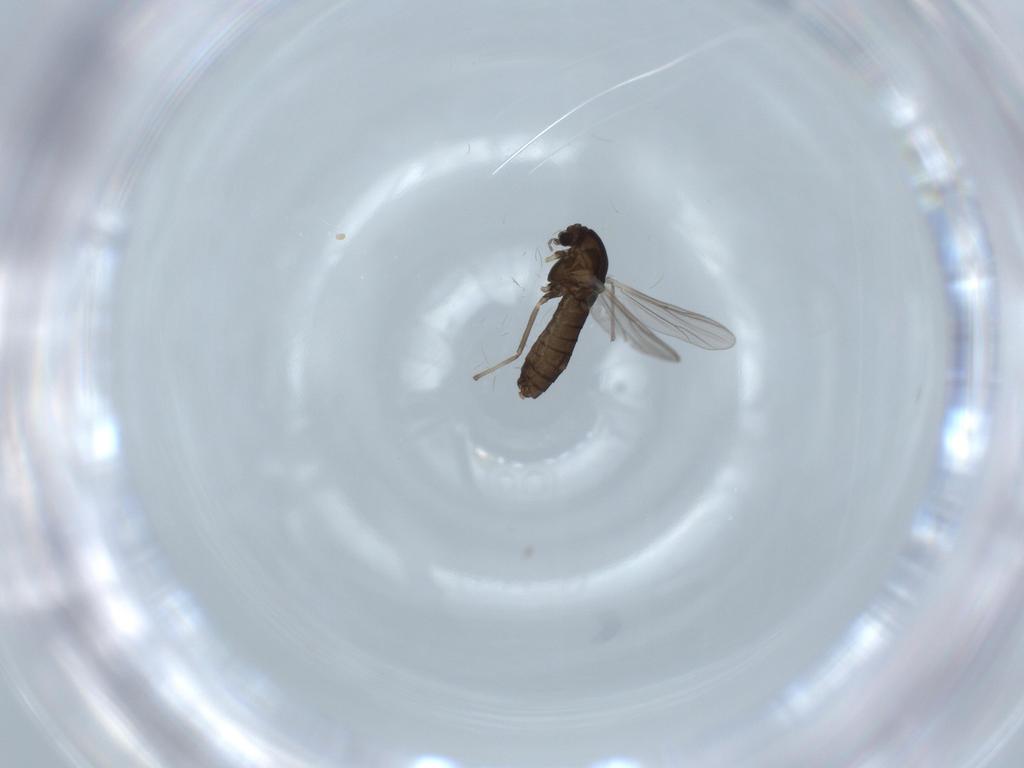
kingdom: Animalia
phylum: Arthropoda
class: Insecta
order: Diptera
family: Chironomidae
